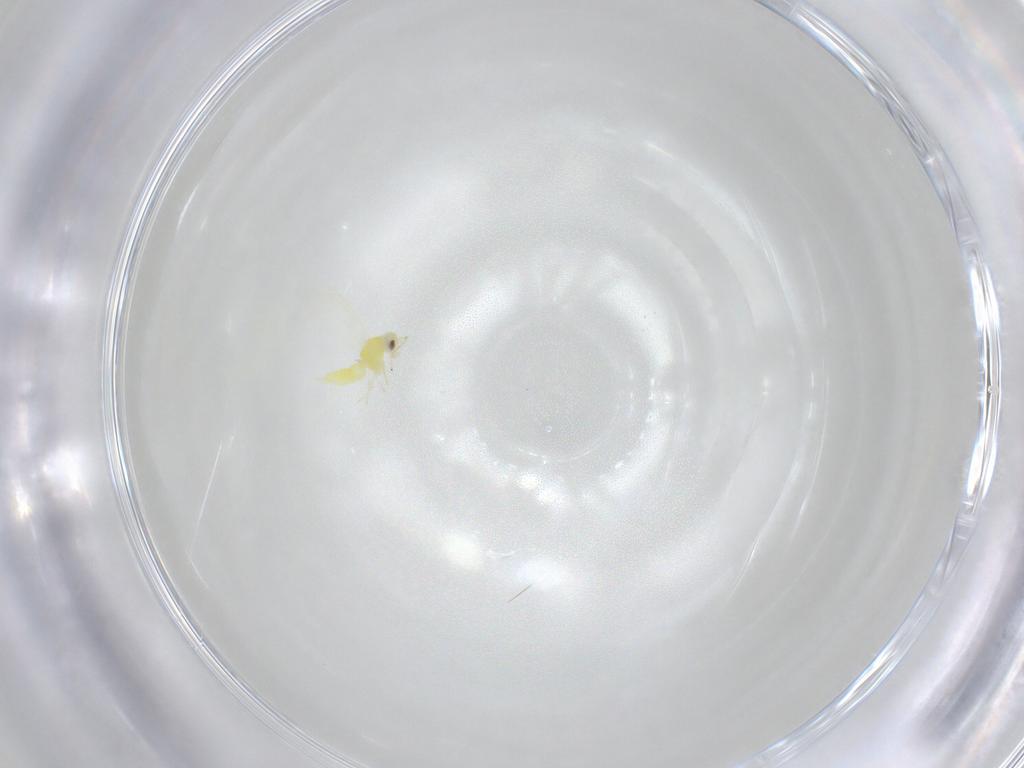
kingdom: Animalia
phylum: Arthropoda
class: Insecta
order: Hemiptera
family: Aleyrodidae
